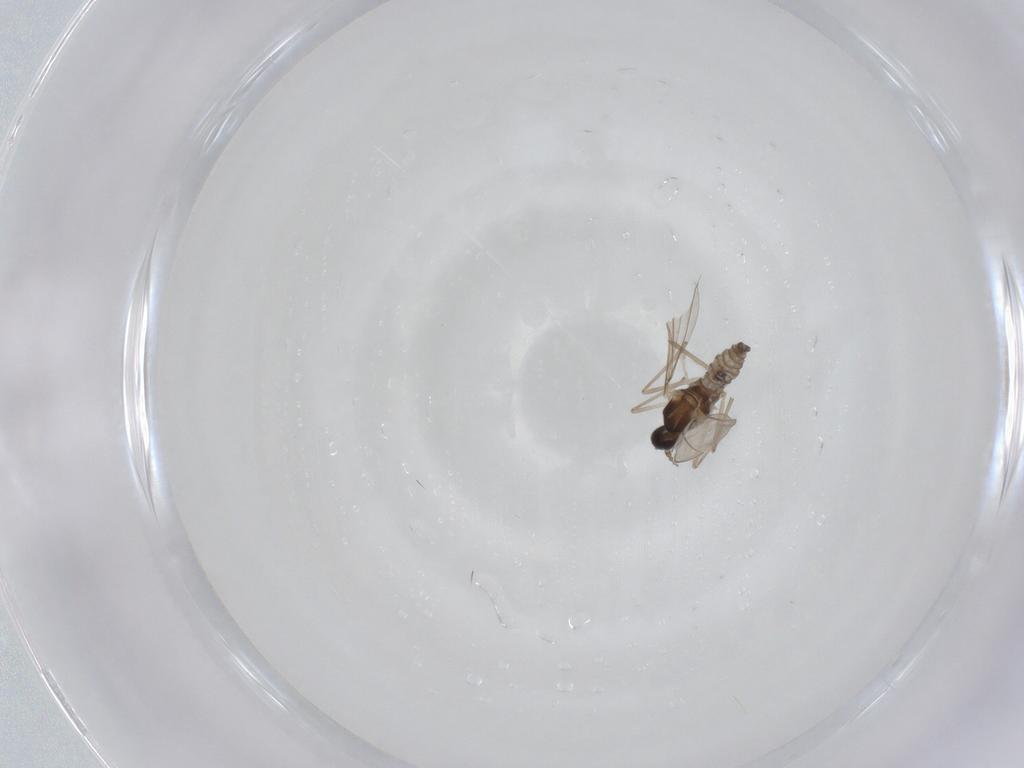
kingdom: Animalia
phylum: Arthropoda
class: Insecta
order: Diptera
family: Cecidomyiidae
